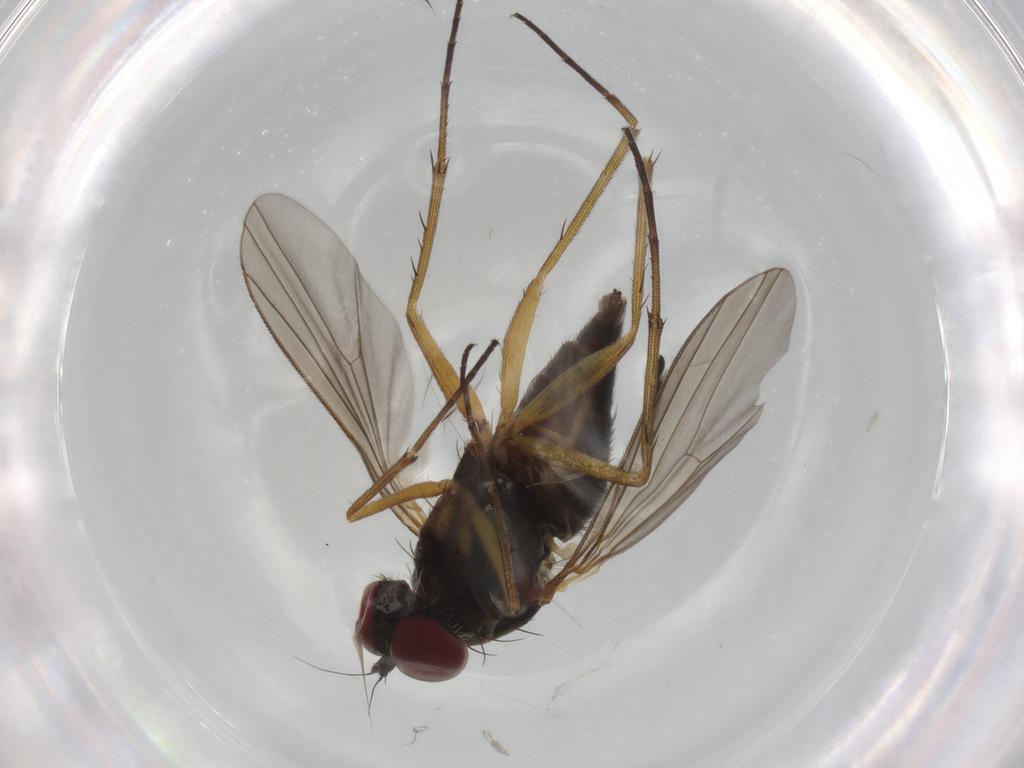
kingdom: Animalia
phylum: Arthropoda
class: Insecta
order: Diptera
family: Dolichopodidae
